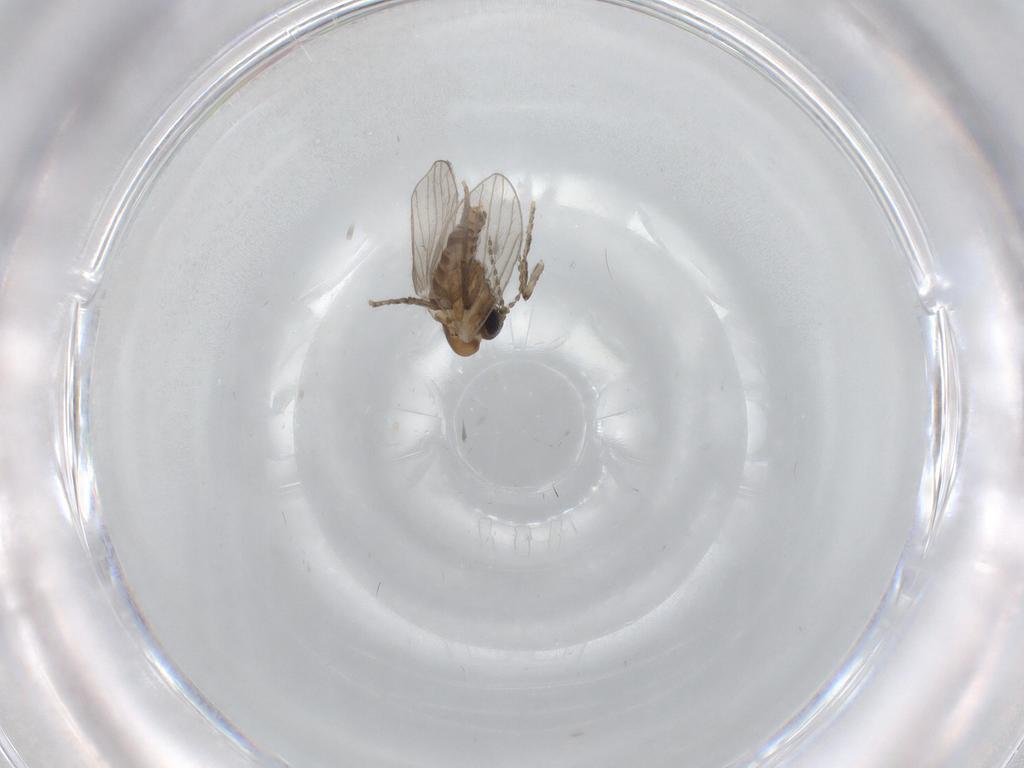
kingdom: Animalia
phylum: Arthropoda
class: Insecta
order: Diptera
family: Psychodidae
